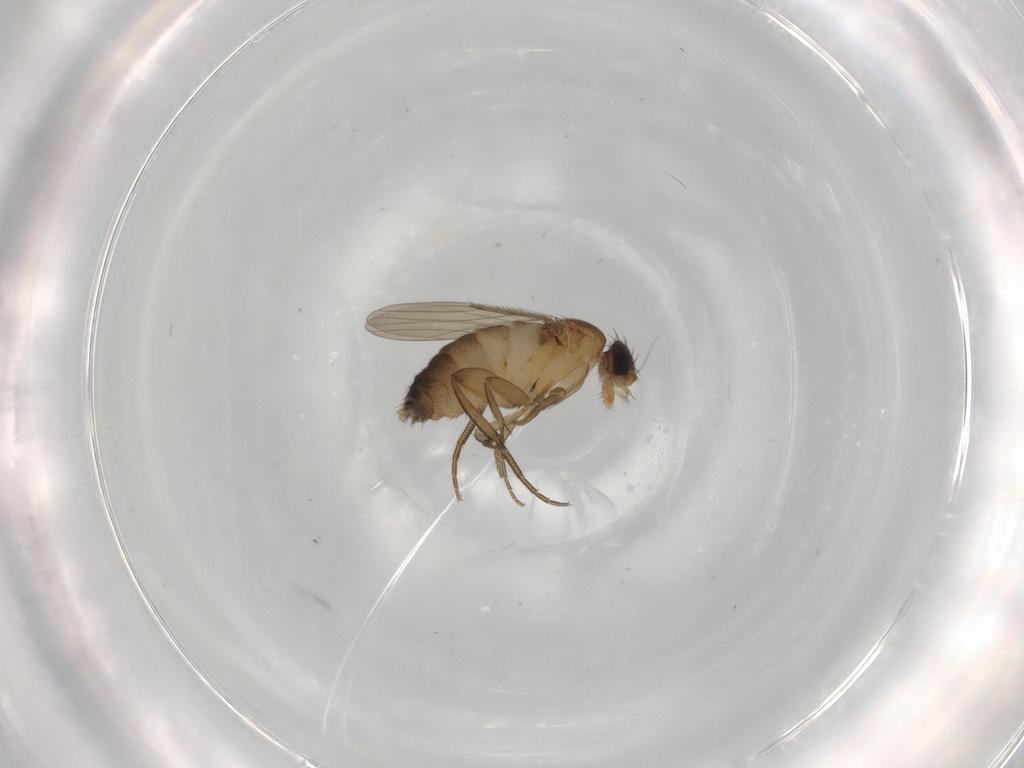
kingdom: Animalia
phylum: Arthropoda
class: Insecta
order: Diptera
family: Phoridae
